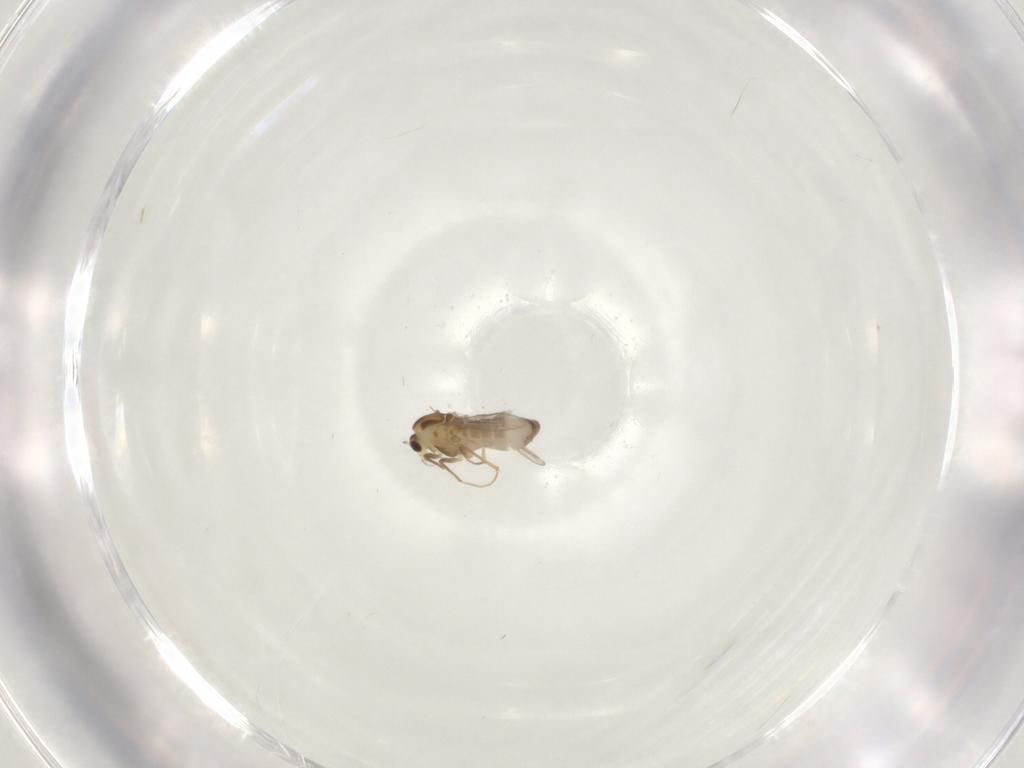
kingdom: Animalia
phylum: Arthropoda
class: Insecta
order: Diptera
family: Chironomidae
